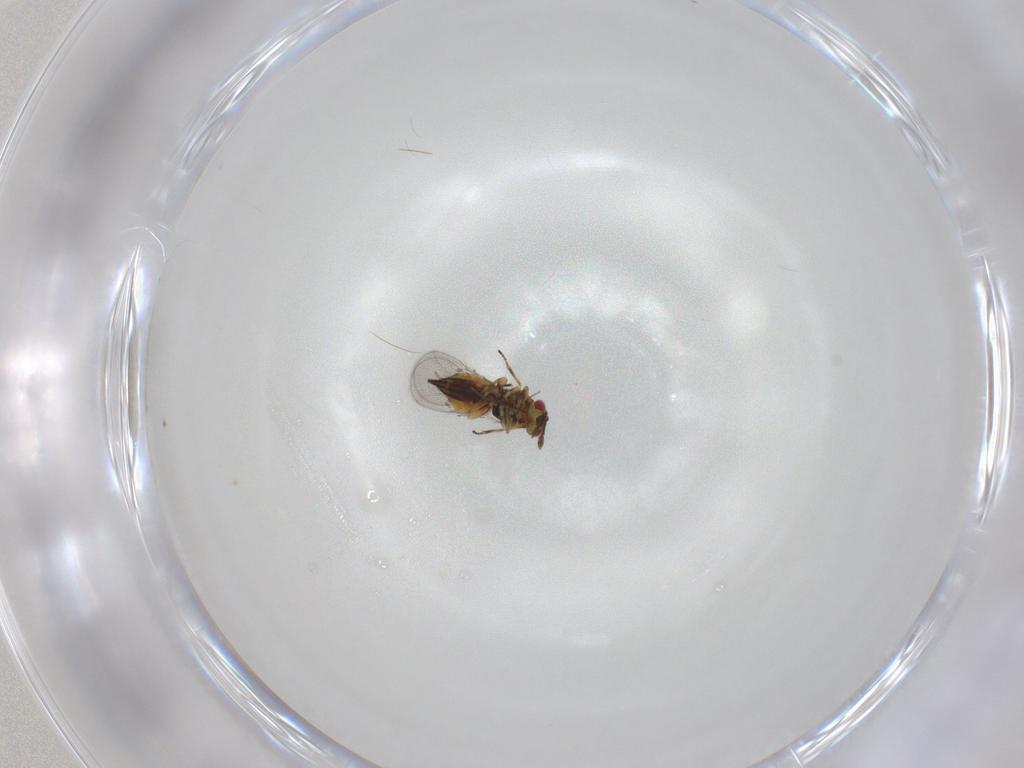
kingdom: Animalia
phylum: Arthropoda
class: Insecta
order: Hymenoptera
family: Eulophidae
